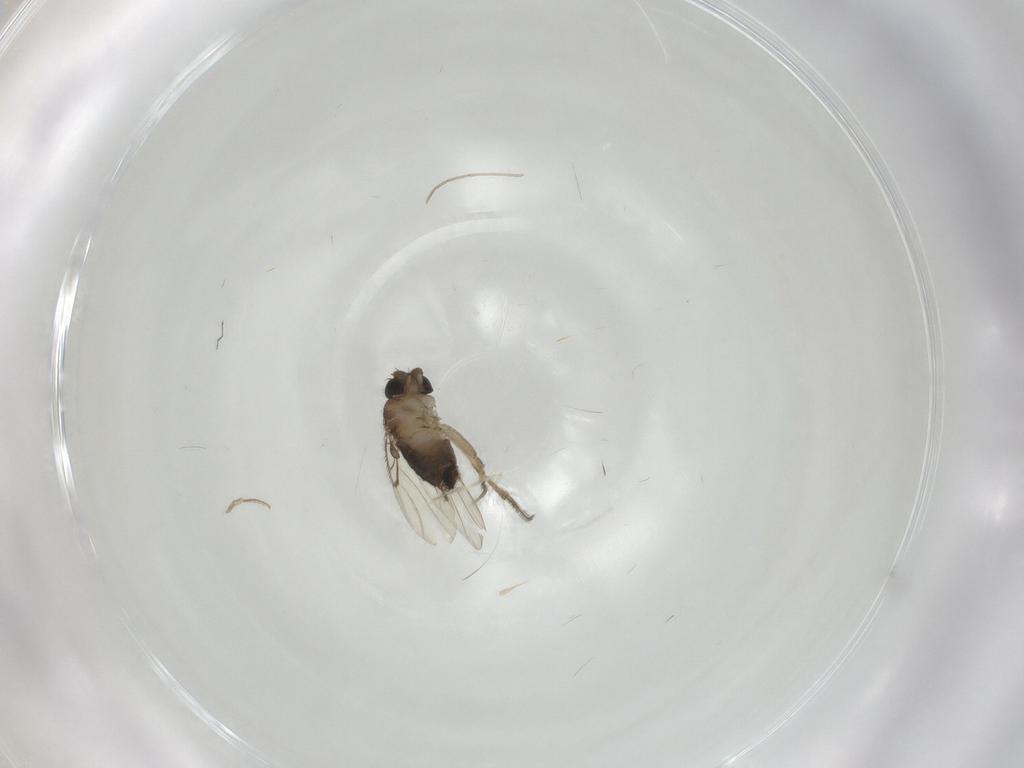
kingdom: Animalia
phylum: Arthropoda
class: Insecta
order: Diptera
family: Cecidomyiidae
